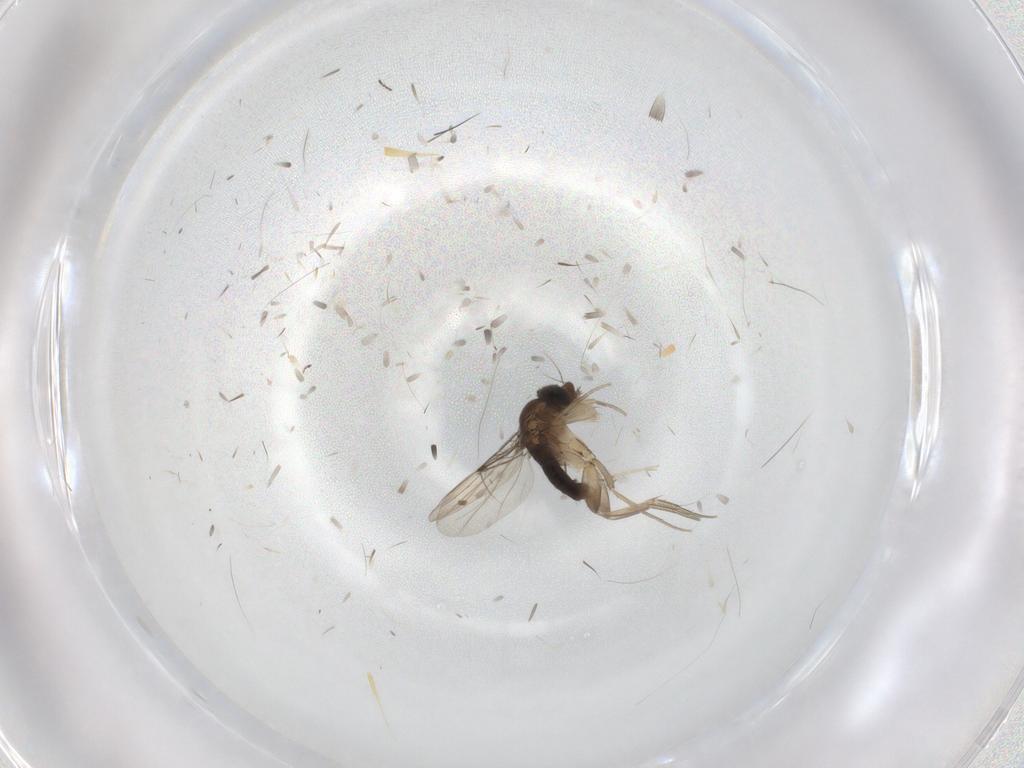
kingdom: Animalia
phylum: Arthropoda
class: Insecta
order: Diptera
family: Phoridae
